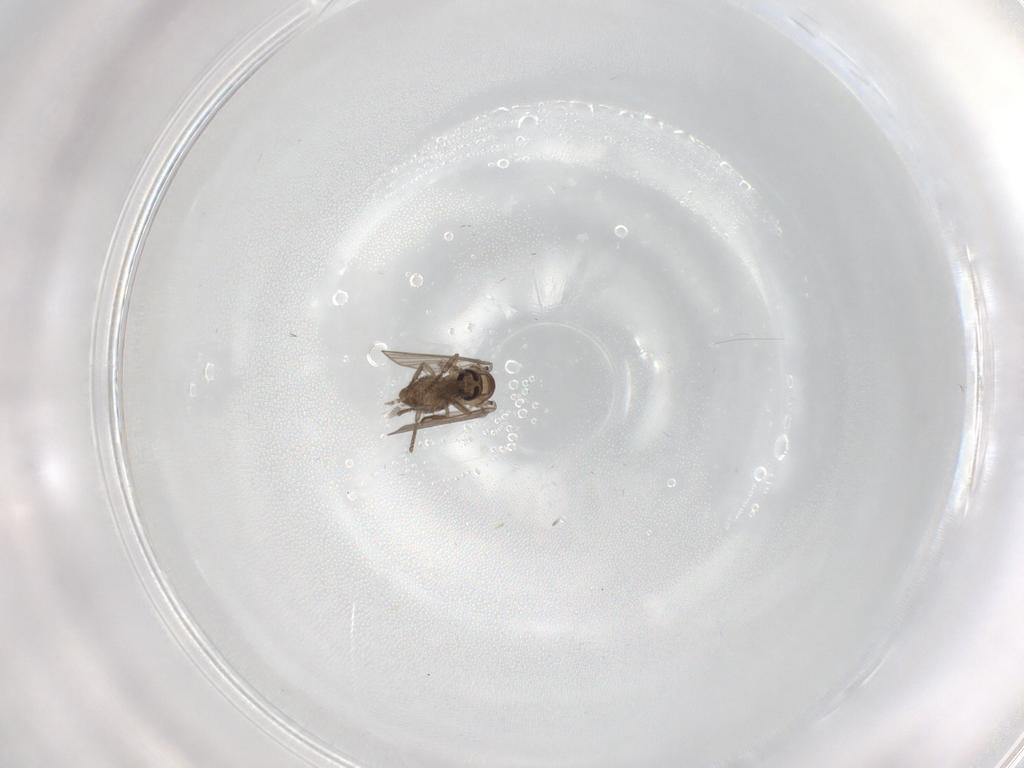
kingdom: Animalia
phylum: Arthropoda
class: Insecta
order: Diptera
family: Psychodidae
